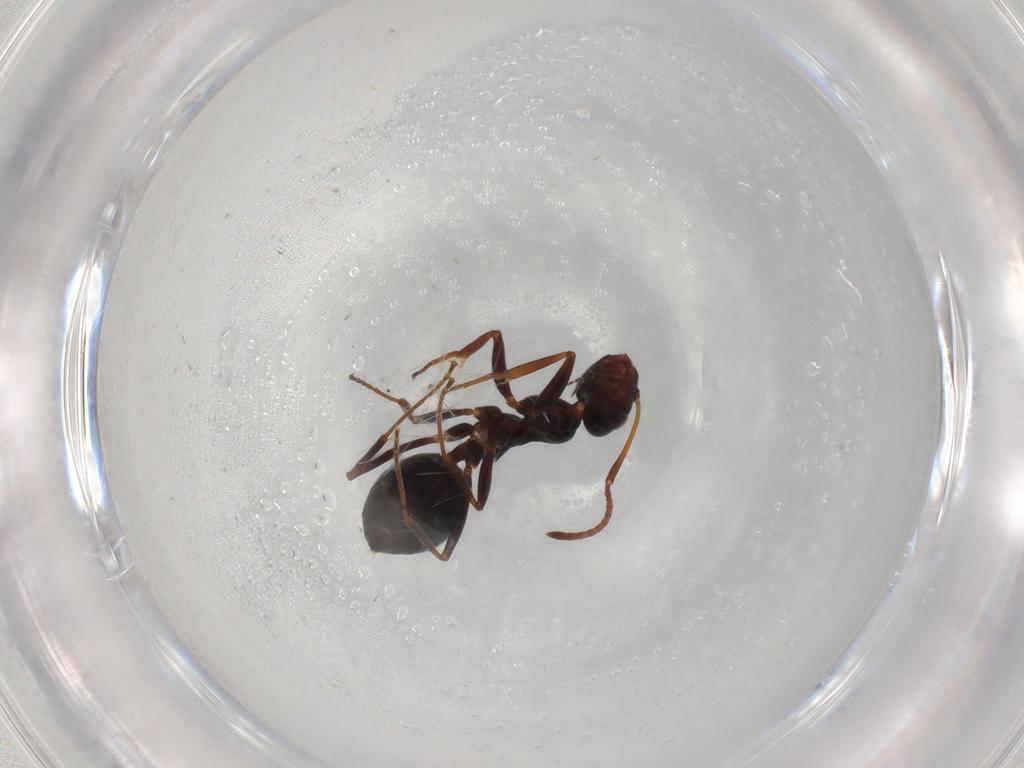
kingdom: Animalia
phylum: Arthropoda
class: Insecta
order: Hymenoptera
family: Formicidae
